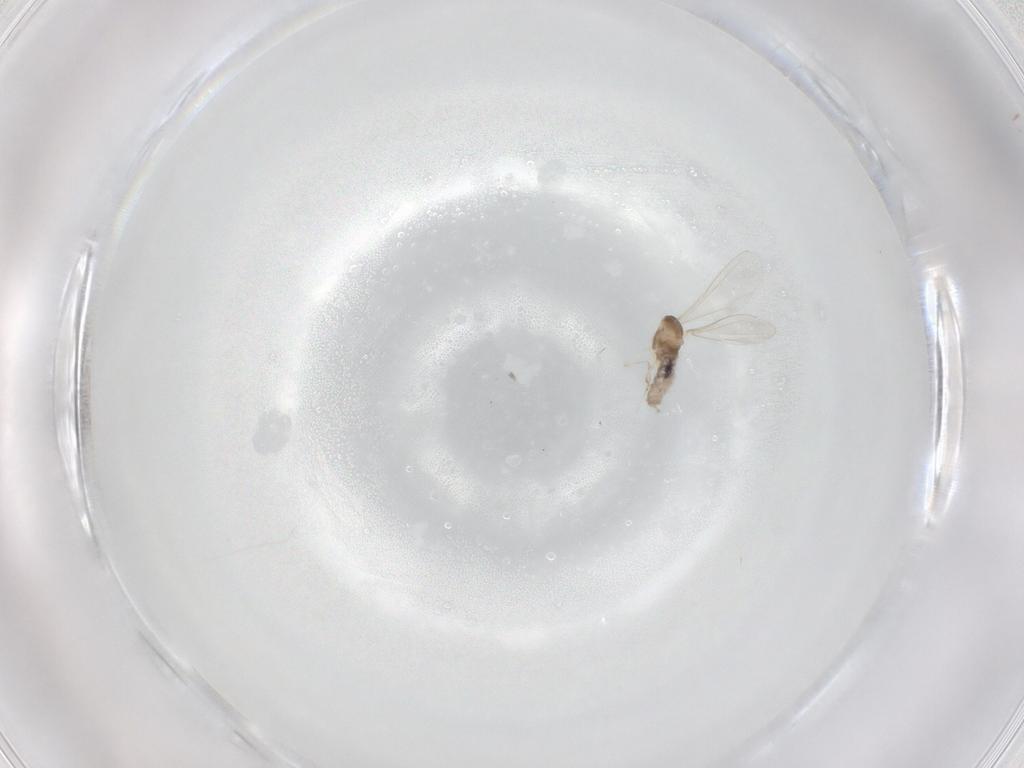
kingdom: Animalia
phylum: Arthropoda
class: Insecta
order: Diptera
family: Cecidomyiidae
